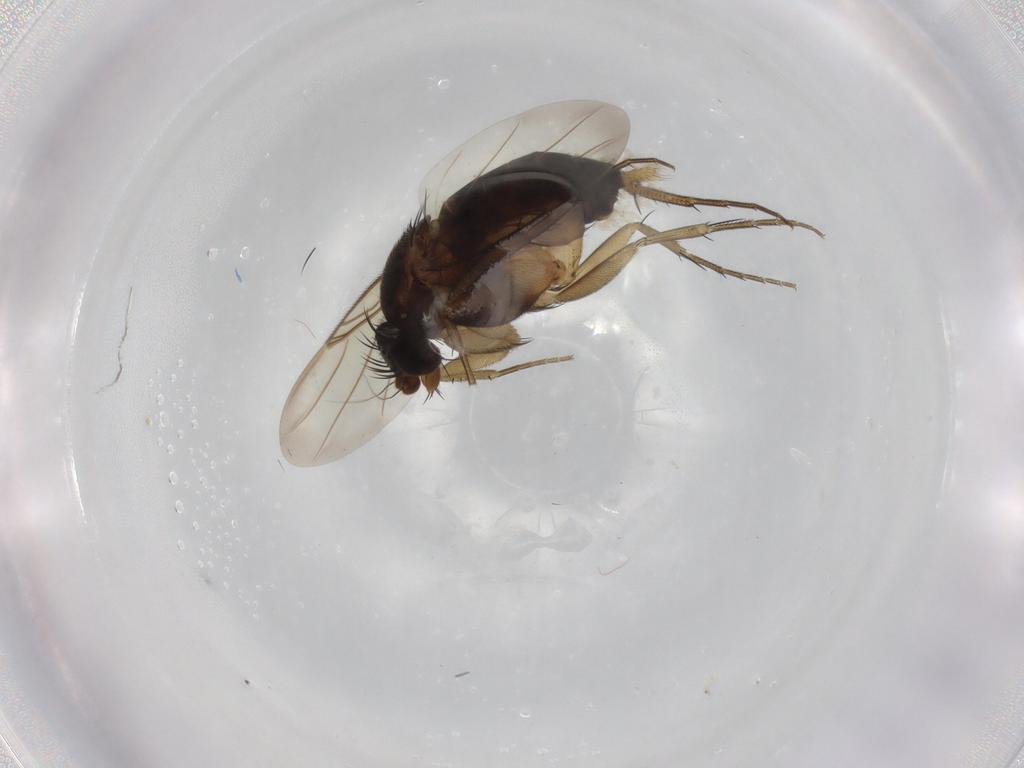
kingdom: Animalia
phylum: Arthropoda
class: Insecta
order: Diptera
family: Phoridae
